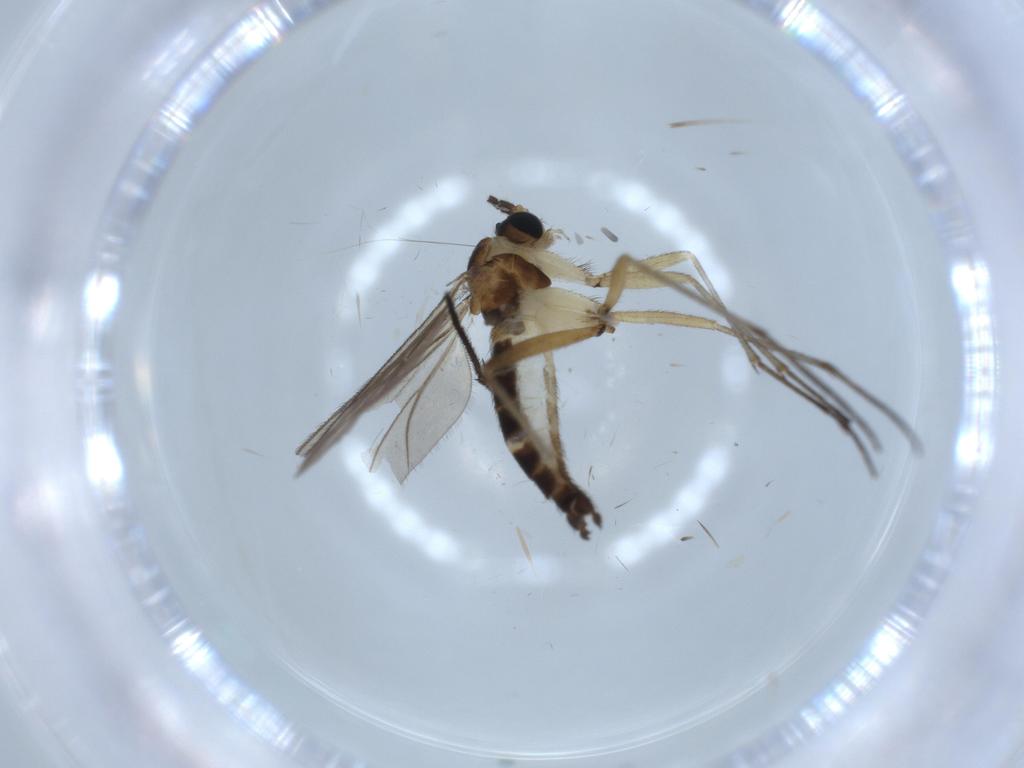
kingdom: Animalia
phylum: Arthropoda
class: Insecta
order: Diptera
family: Sciaridae
